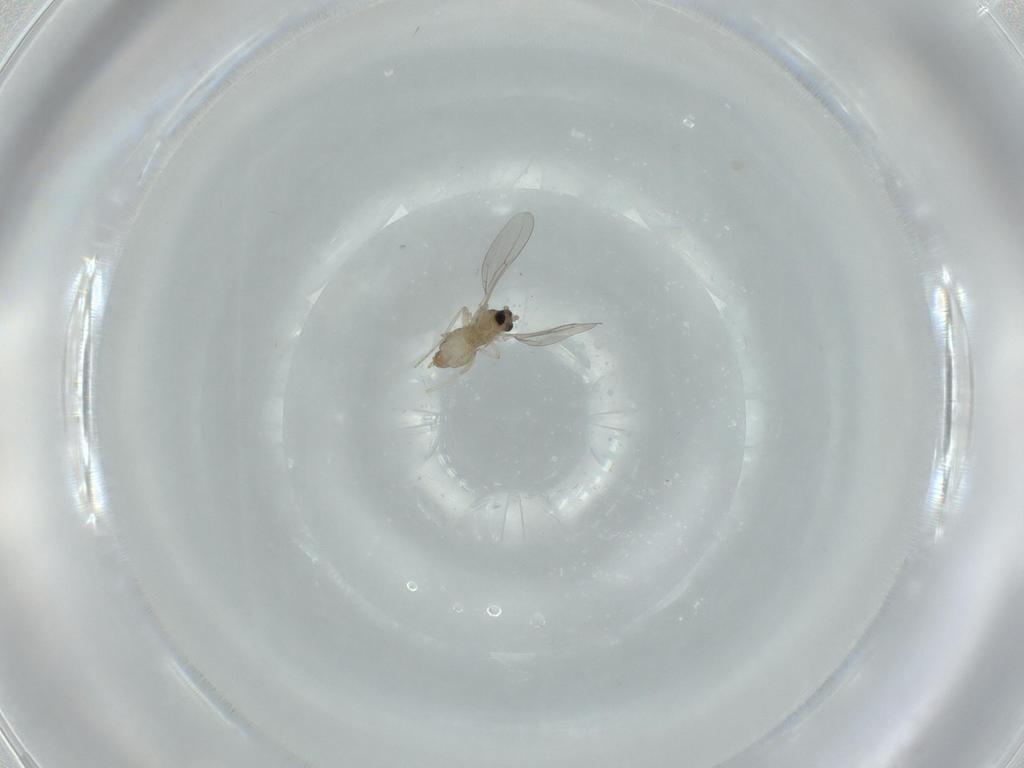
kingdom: Animalia
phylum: Arthropoda
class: Insecta
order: Diptera
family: Cecidomyiidae
